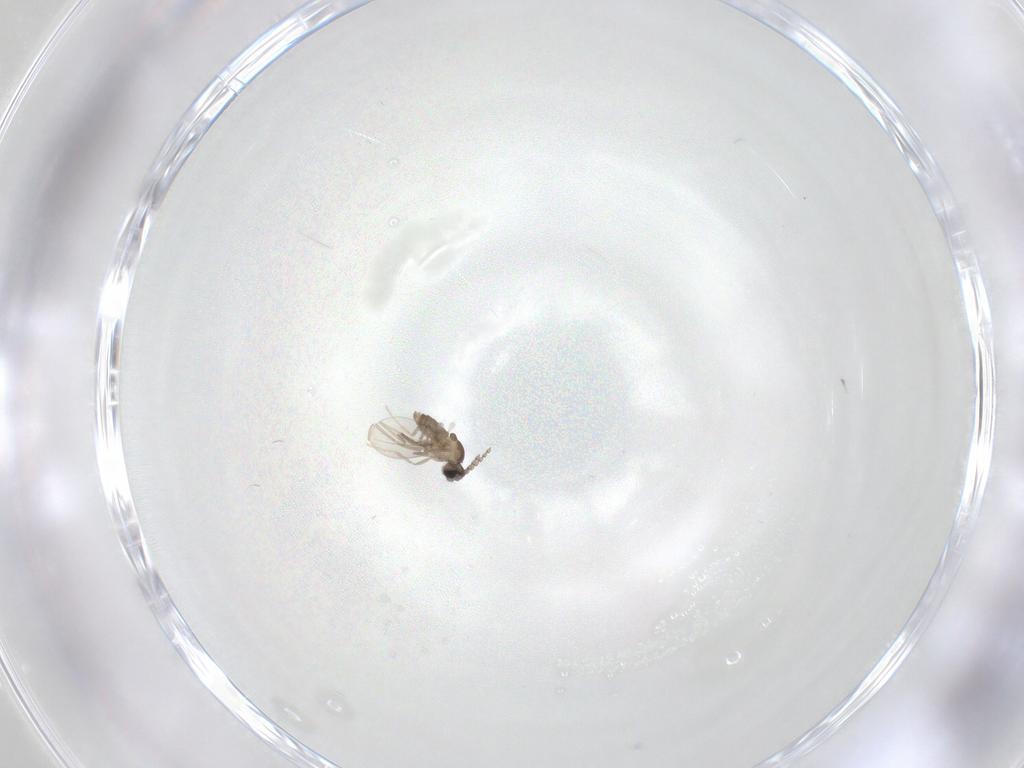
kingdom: Animalia
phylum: Arthropoda
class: Insecta
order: Diptera
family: Cecidomyiidae
